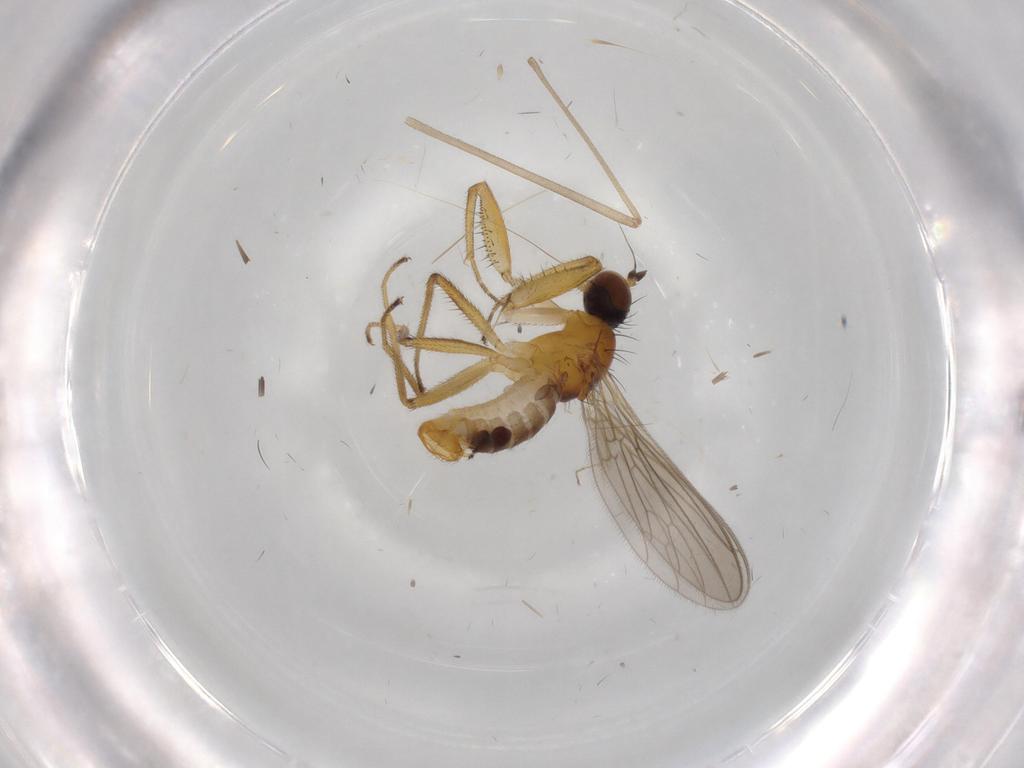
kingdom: Animalia
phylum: Arthropoda
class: Insecta
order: Diptera
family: Empididae
